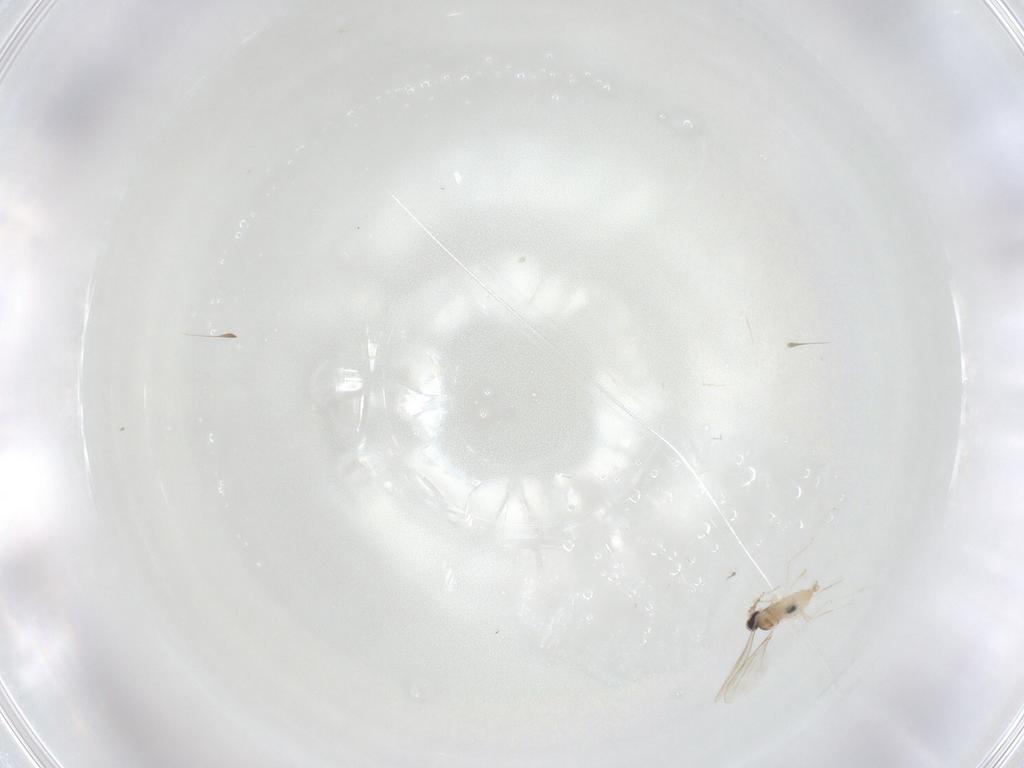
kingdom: Animalia
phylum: Arthropoda
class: Insecta
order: Diptera
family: Cecidomyiidae
